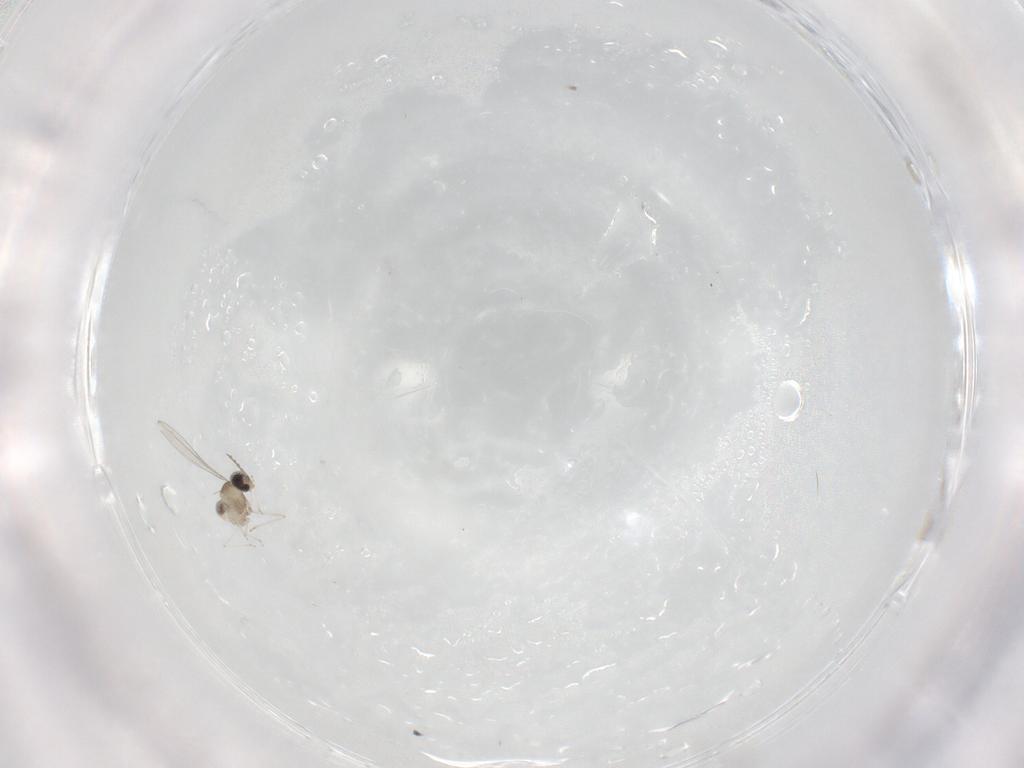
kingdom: Animalia
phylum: Arthropoda
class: Insecta
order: Diptera
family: Cecidomyiidae
